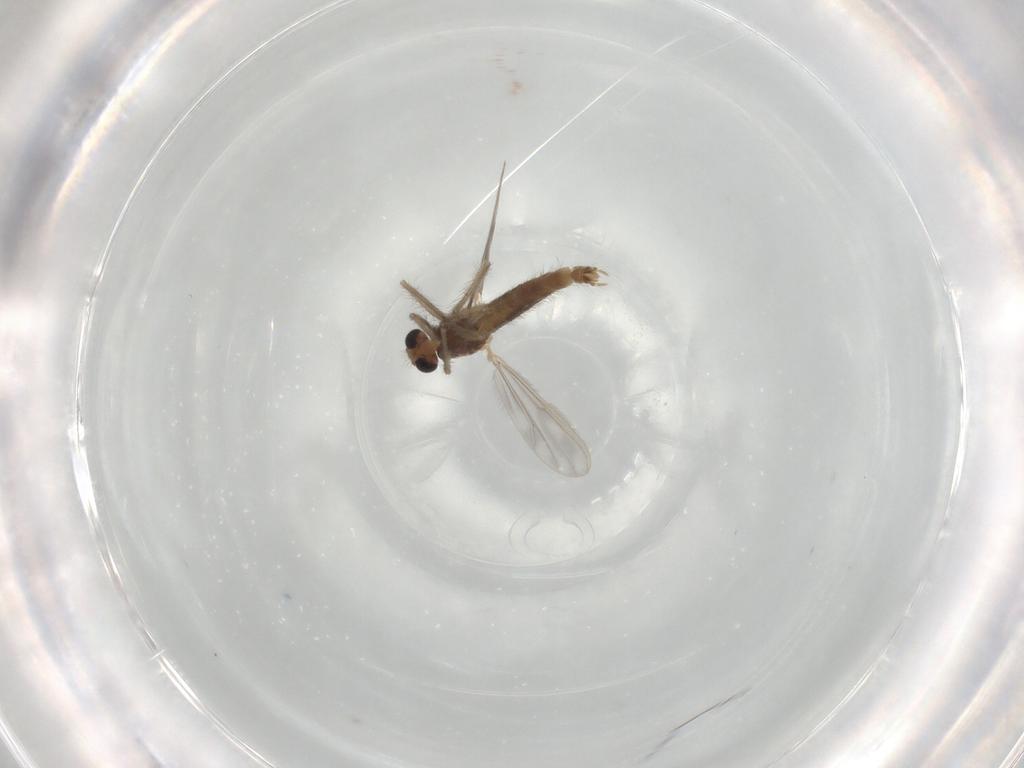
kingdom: Animalia
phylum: Arthropoda
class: Insecta
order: Diptera
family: Chironomidae
